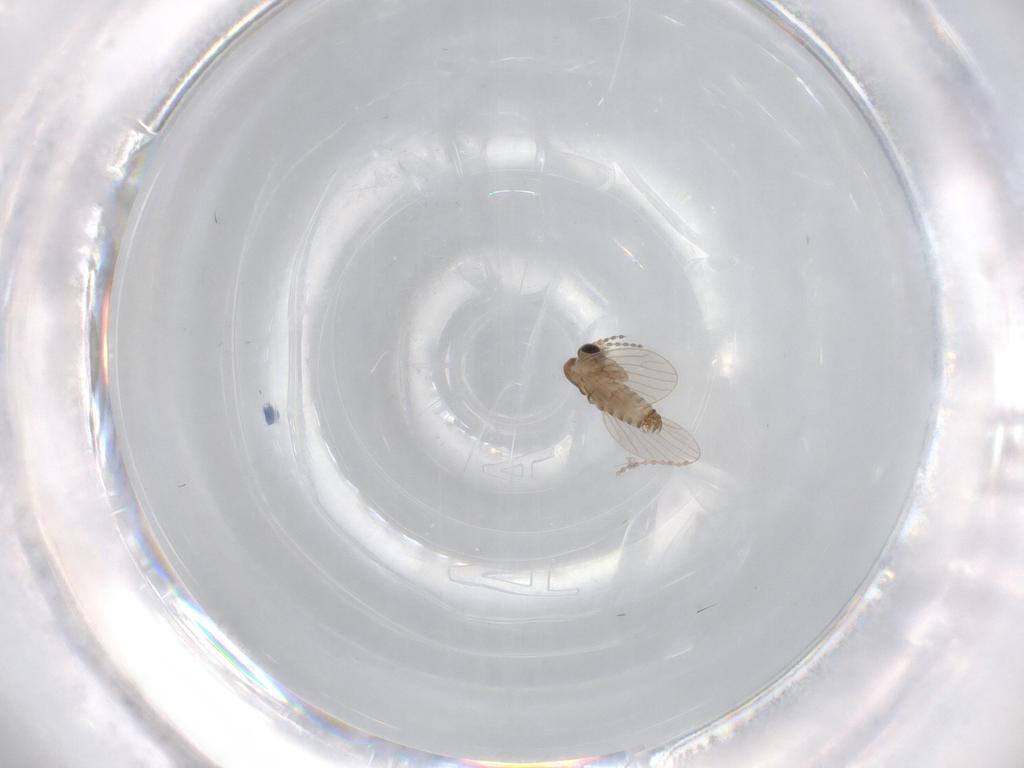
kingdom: Animalia
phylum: Arthropoda
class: Insecta
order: Diptera
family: Cecidomyiidae
